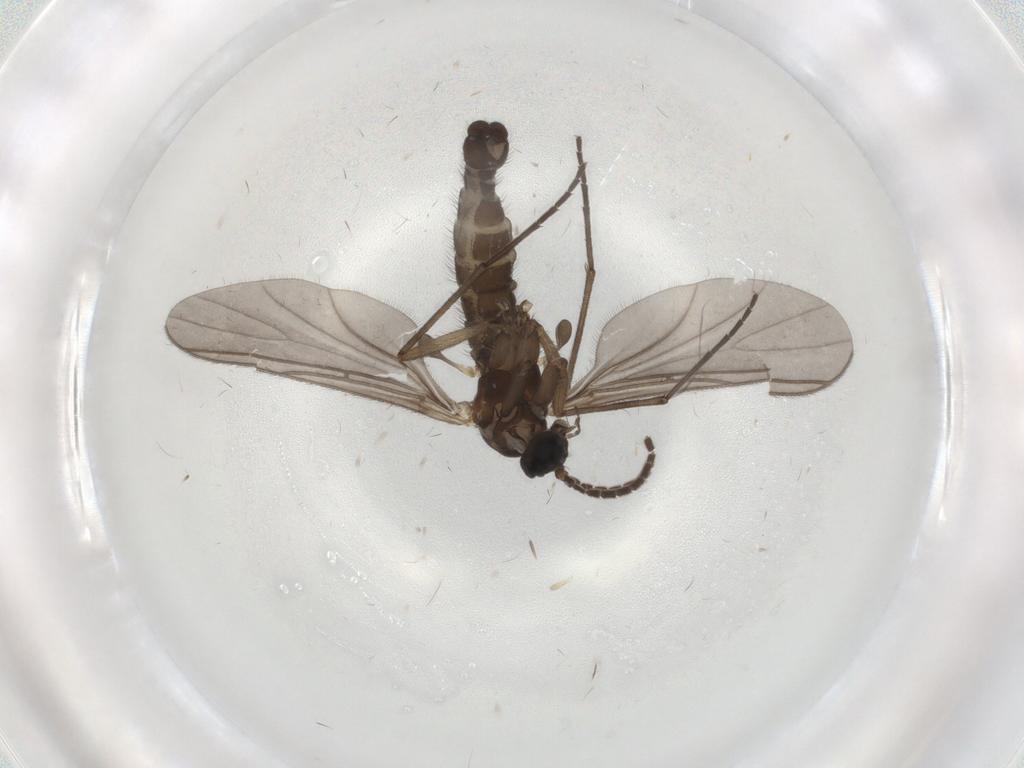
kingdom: Animalia
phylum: Arthropoda
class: Insecta
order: Diptera
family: Sciaridae
